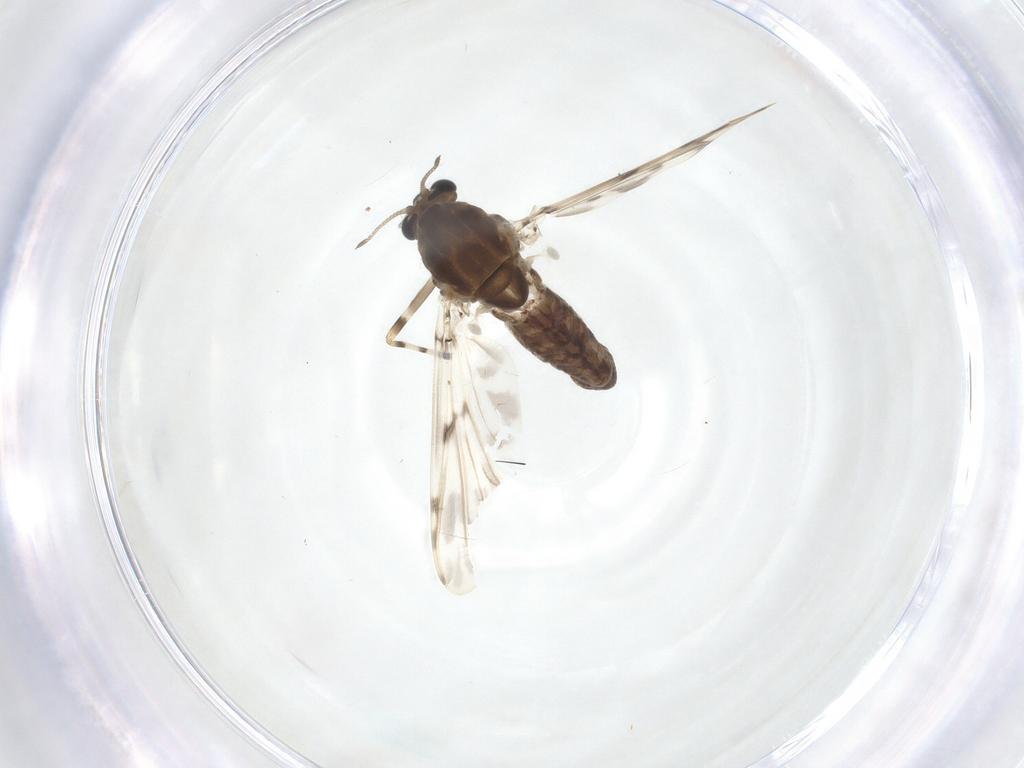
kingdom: Animalia
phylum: Arthropoda
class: Insecta
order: Diptera
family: Chironomidae
